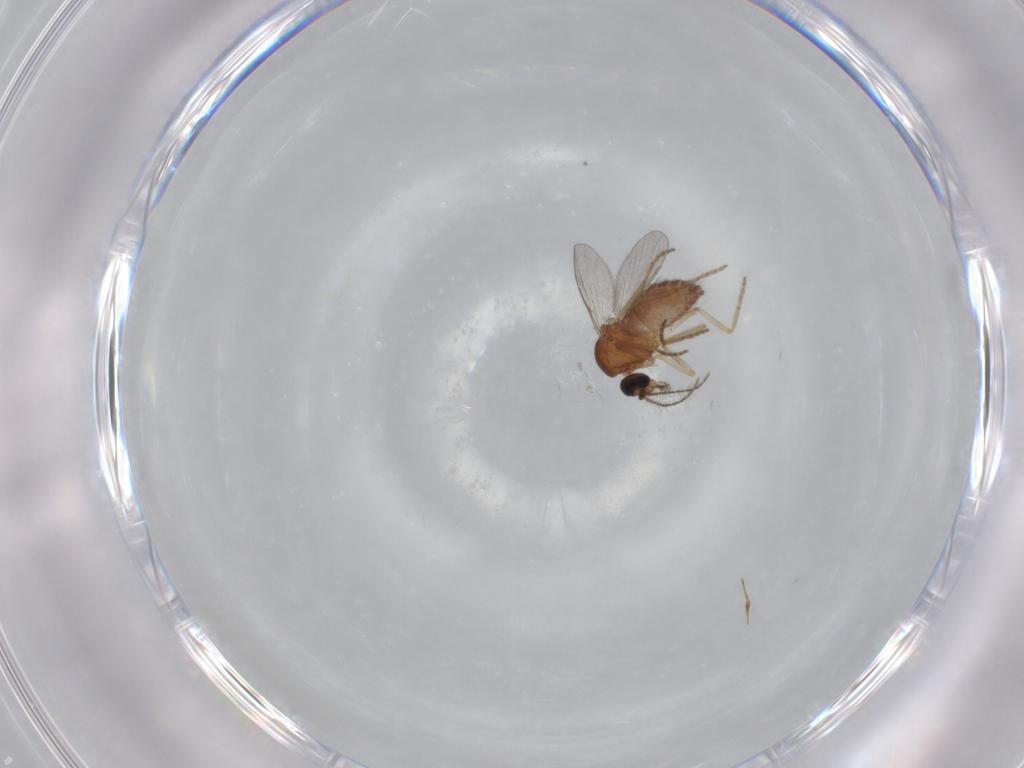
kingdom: Animalia
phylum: Arthropoda
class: Insecta
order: Diptera
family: Ceratopogonidae
